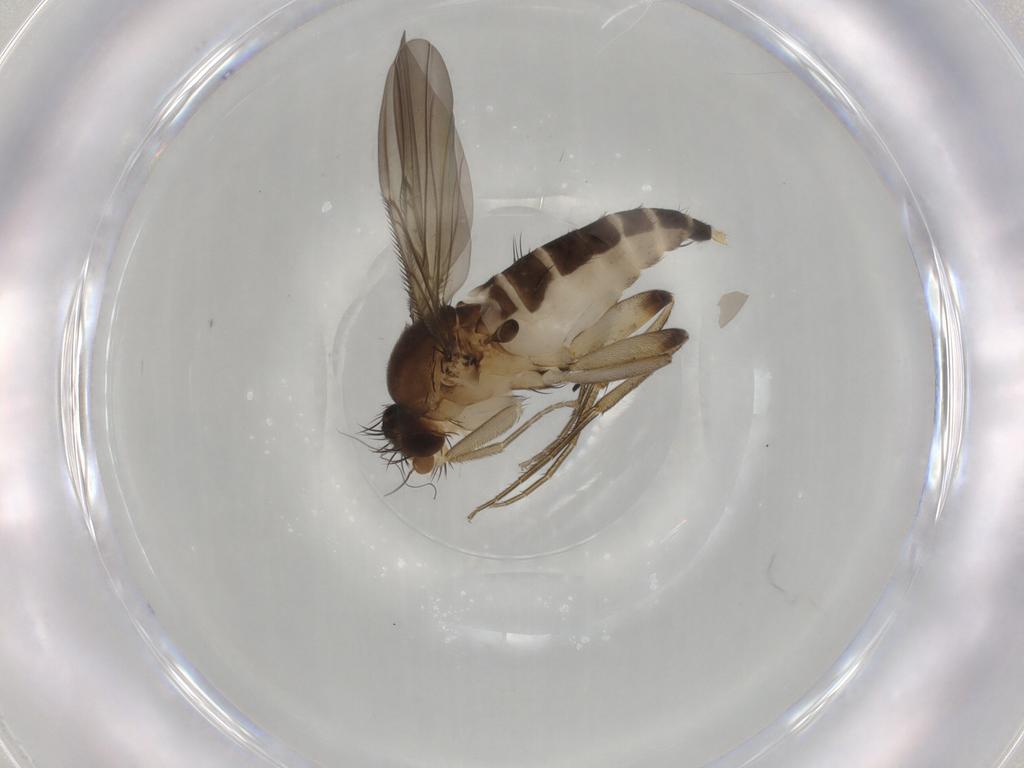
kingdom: Animalia
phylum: Arthropoda
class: Insecta
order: Diptera
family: Phoridae
